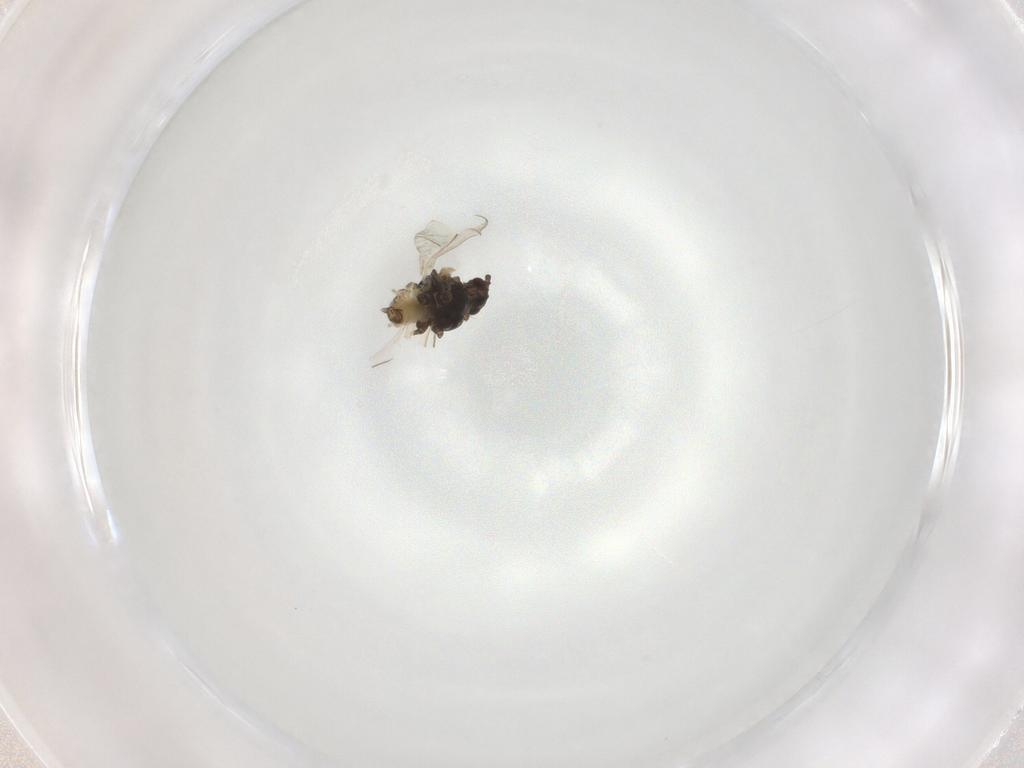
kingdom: Animalia
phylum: Arthropoda
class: Insecta
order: Hemiptera
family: Aphididae
